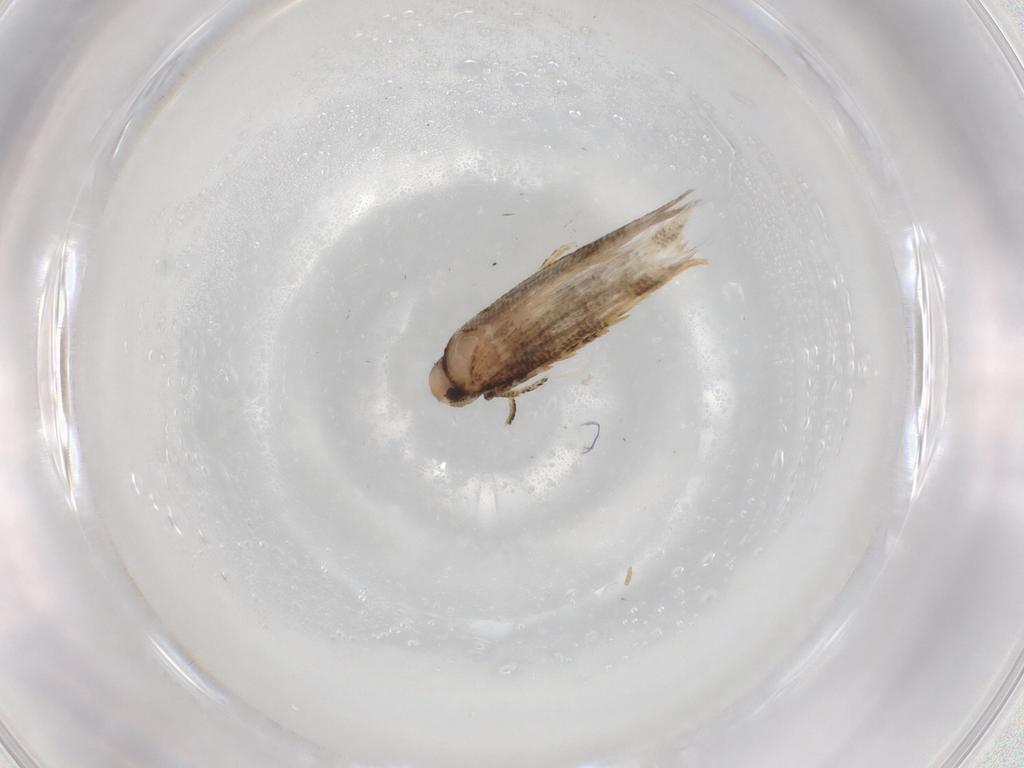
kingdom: Animalia
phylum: Arthropoda
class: Insecta
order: Lepidoptera
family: Cosmopterigidae
